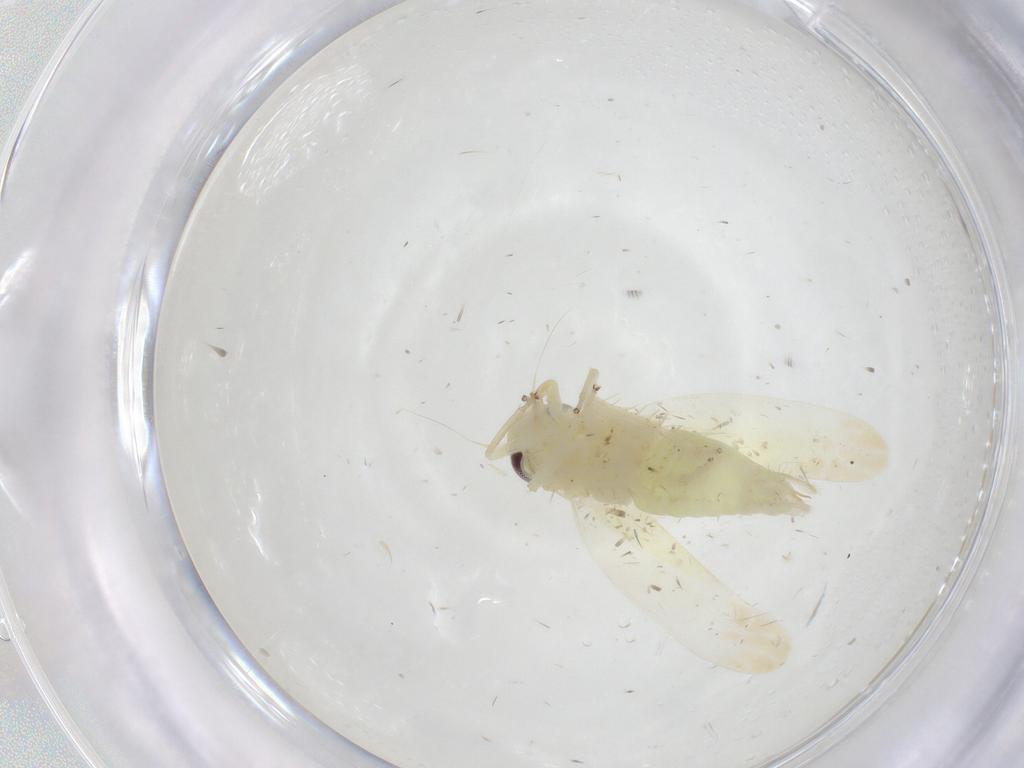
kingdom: Animalia
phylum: Arthropoda
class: Insecta
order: Hemiptera
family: Cicadellidae
